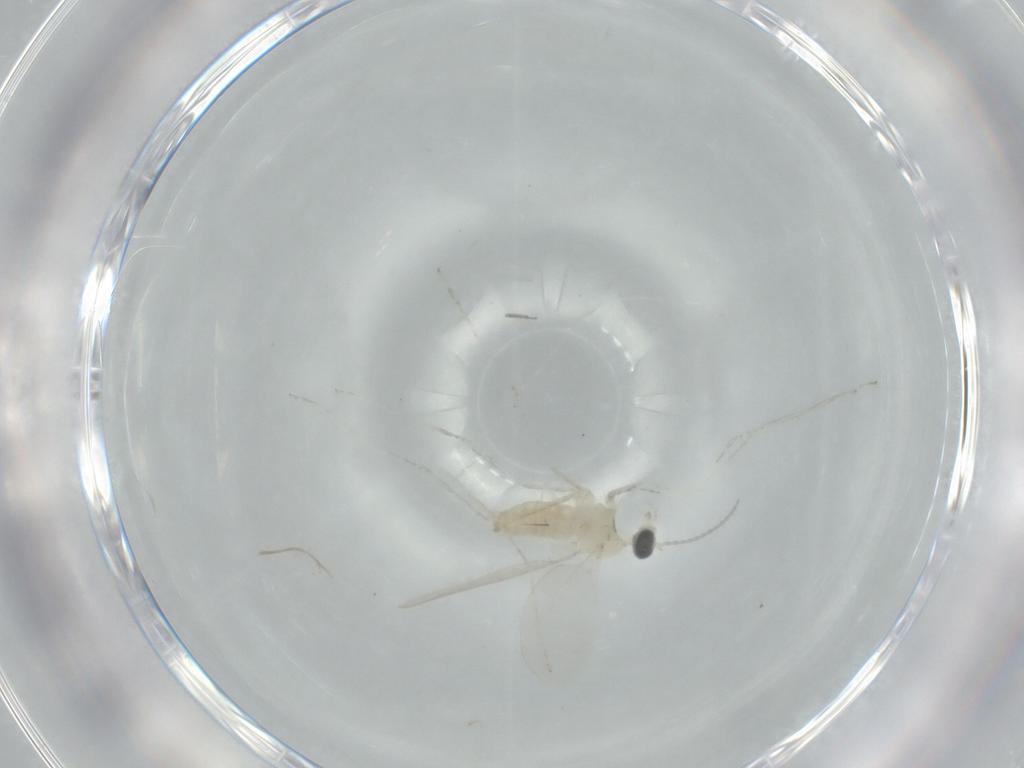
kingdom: Animalia
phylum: Arthropoda
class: Insecta
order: Diptera
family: Cecidomyiidae
